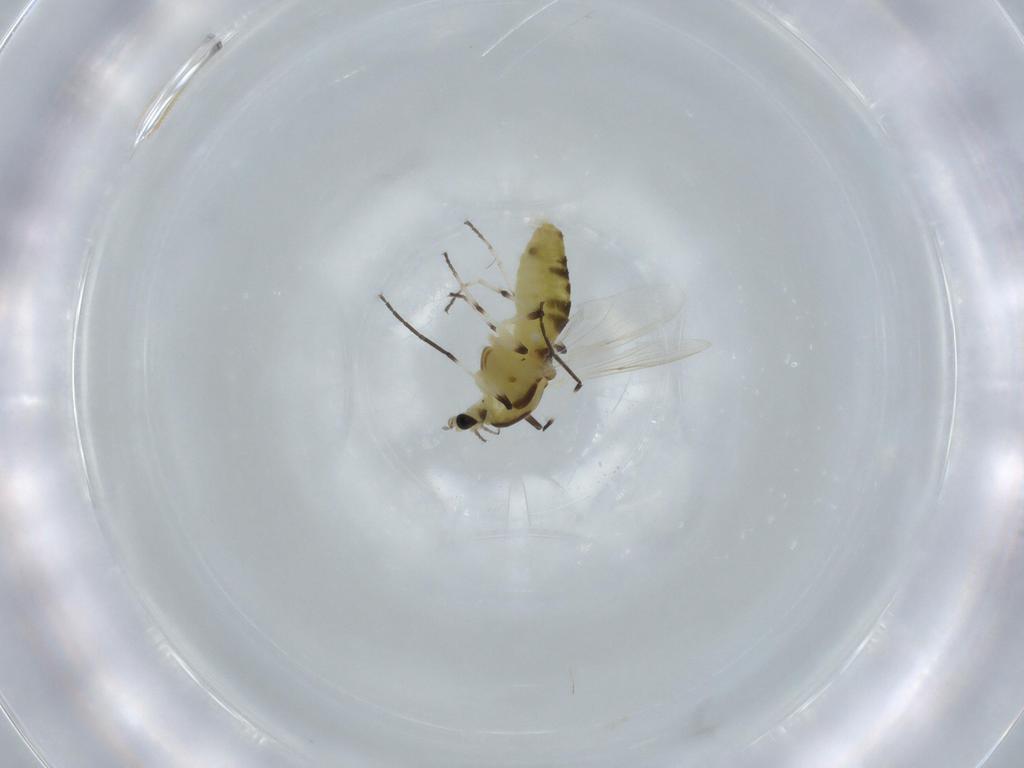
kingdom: Animalia
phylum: Arthropoda
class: Insecta
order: Diptera
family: Chironomidae
